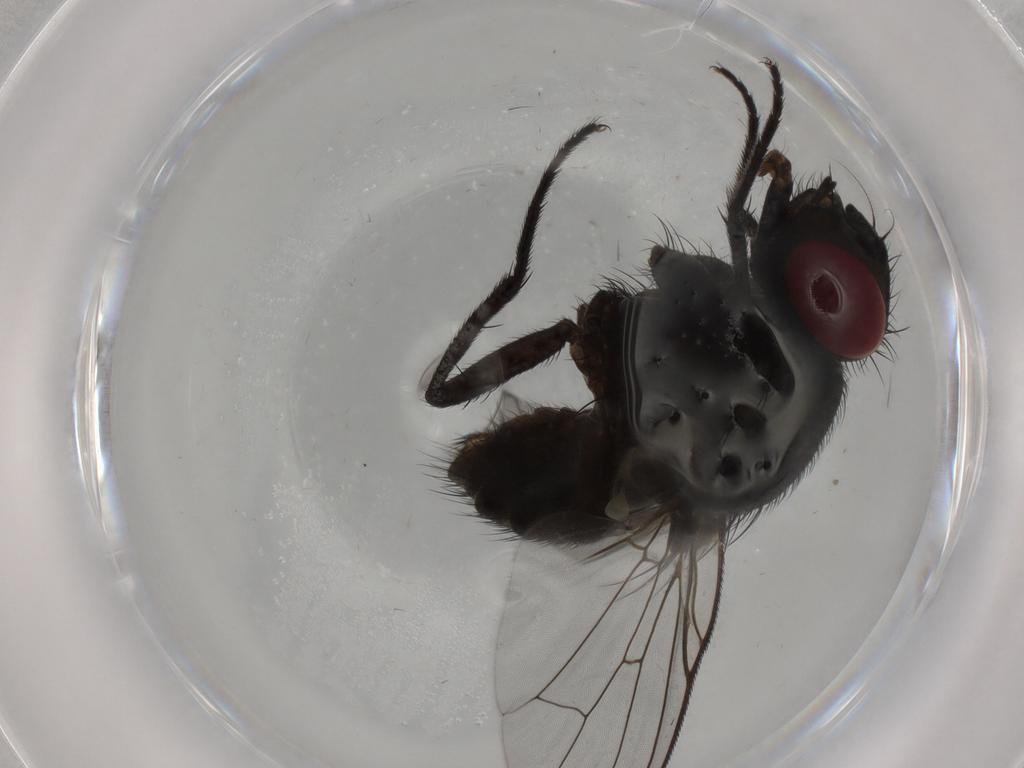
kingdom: Animalia
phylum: Arthropoda
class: Insecta
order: Diptera
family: Muscidae
